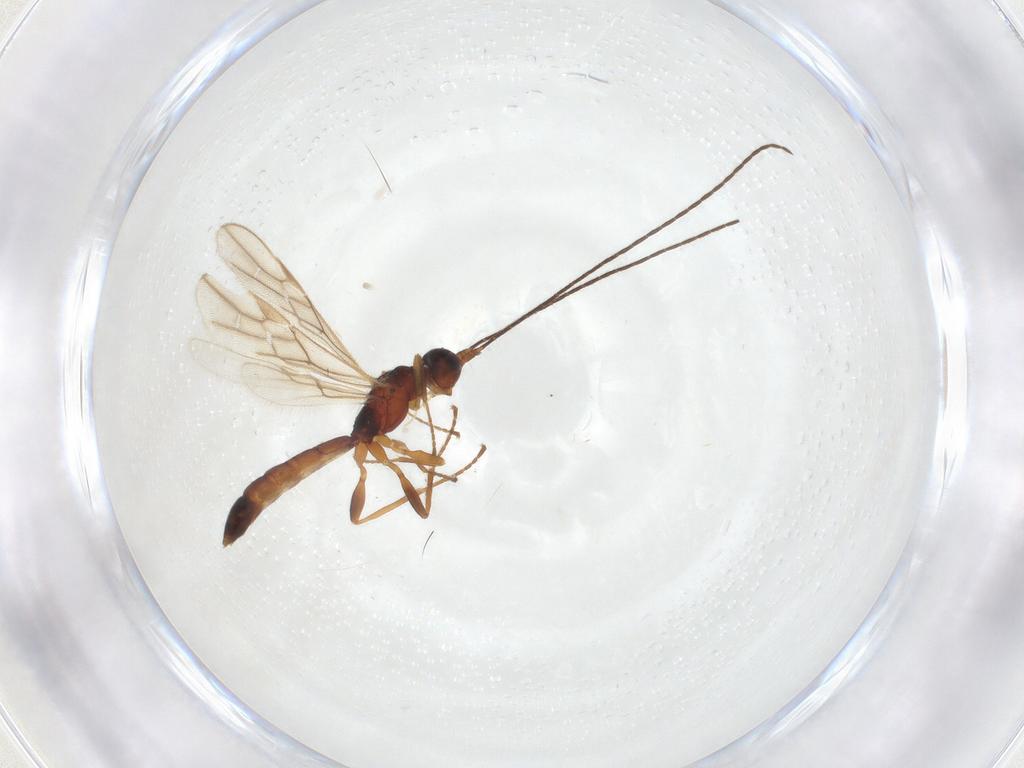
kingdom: Animalia
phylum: Arthropoda
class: Insecta
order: Hymenoptera
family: Braconidae
